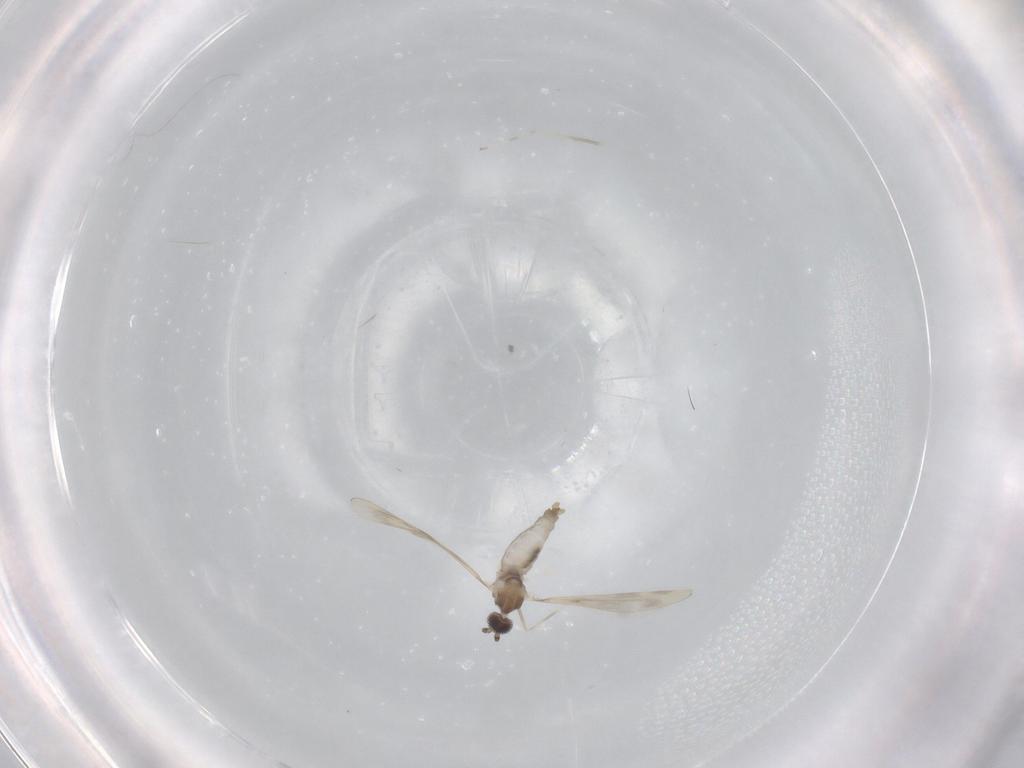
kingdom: Animalia
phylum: Arthropoda
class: Insecta
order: Diptera
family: Cecidomyiidae
